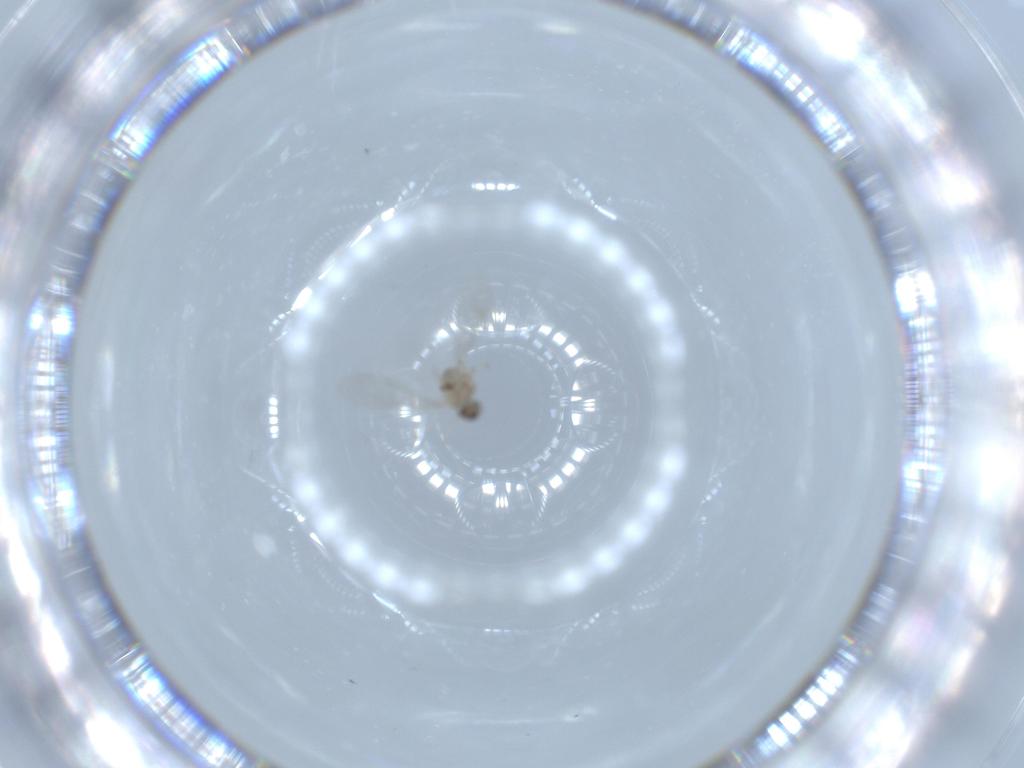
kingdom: Animalia
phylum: Arthropoda
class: Insecta
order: Diptera
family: Cecidomyiidae
